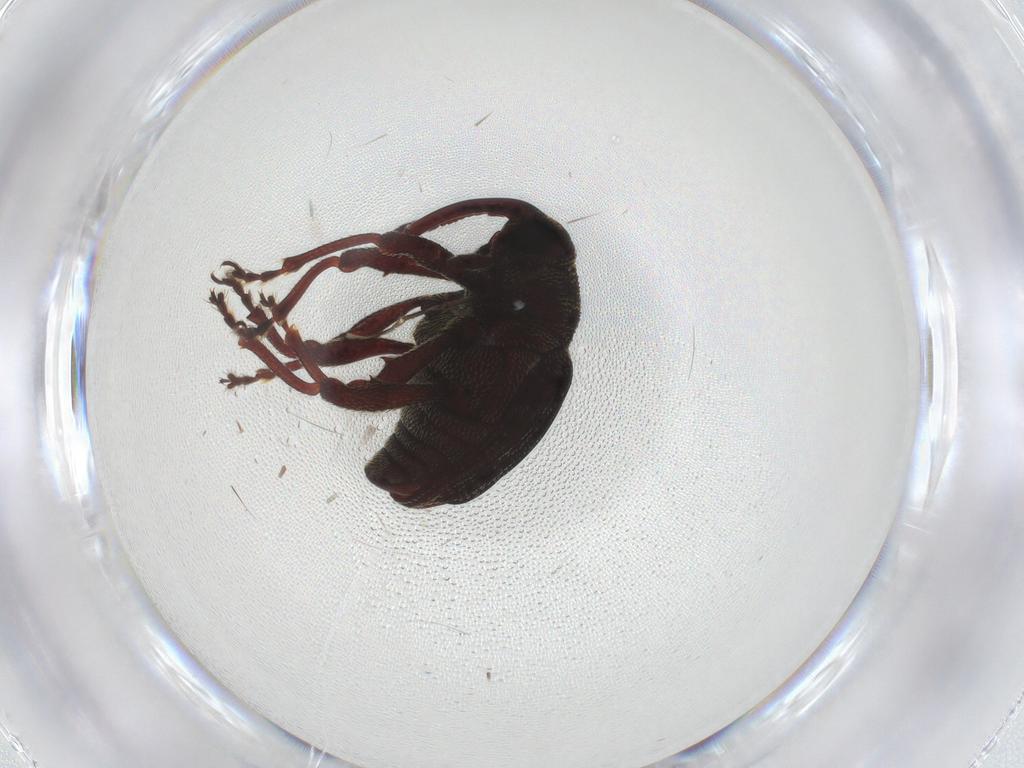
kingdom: Animalia
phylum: Arthropoda
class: Insecta
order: Coleoptera
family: Curculionidae
